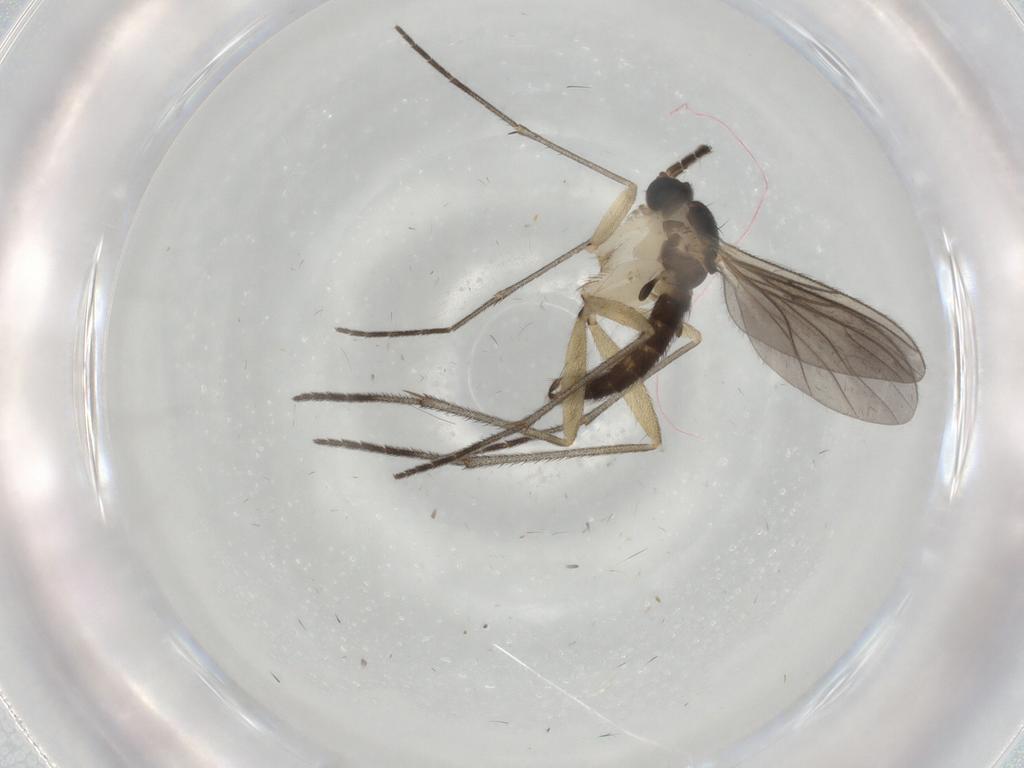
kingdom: Animalia
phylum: Arthropoda
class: Insecta
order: Diptera
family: Sciaridae
